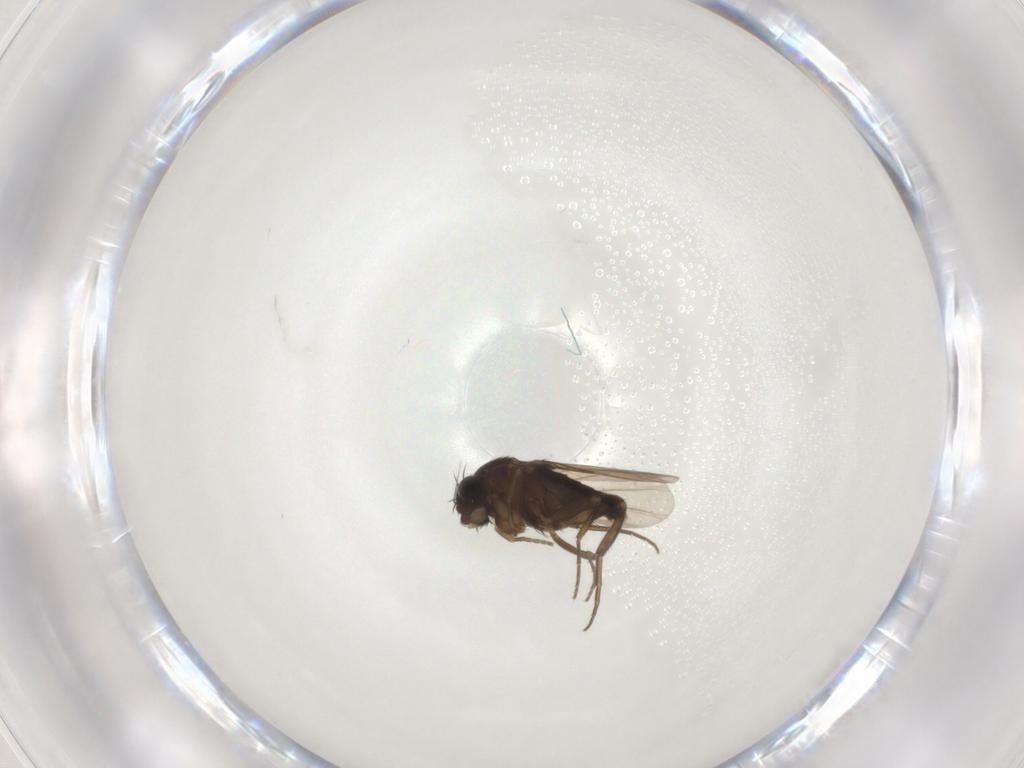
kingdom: Animalia
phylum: Arthropoda
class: Insecta
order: Diptera
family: Phoridae
